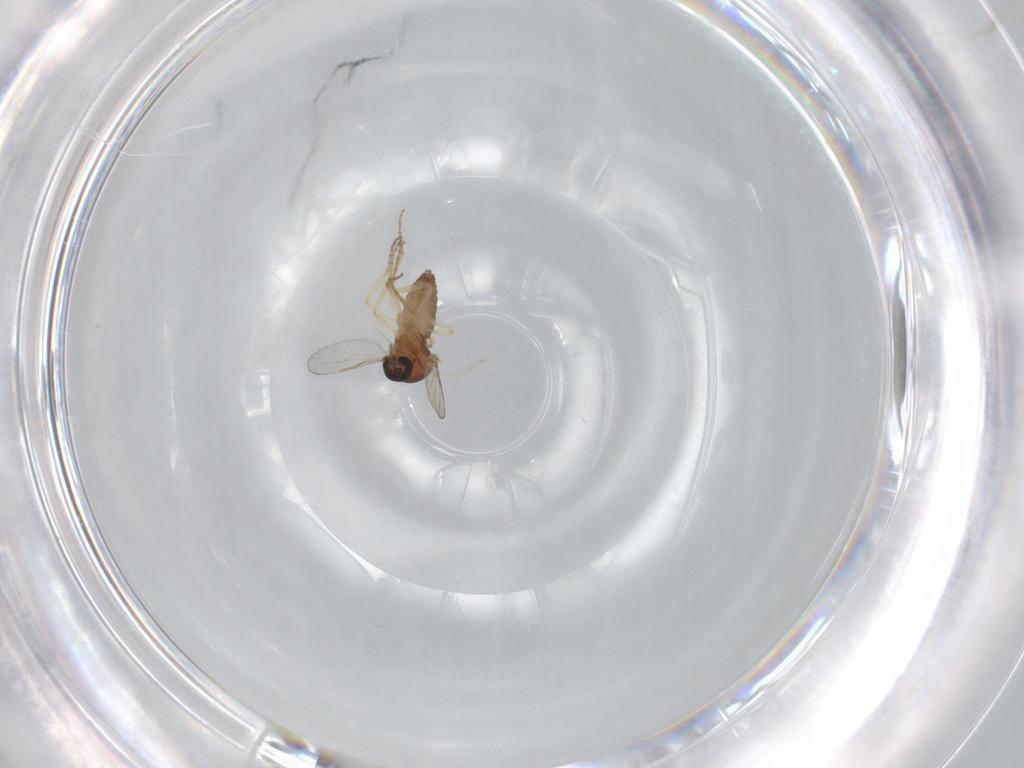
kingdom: Animalia
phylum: Arthropoda
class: Insecta
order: Diptera
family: Ceratopogonidae
